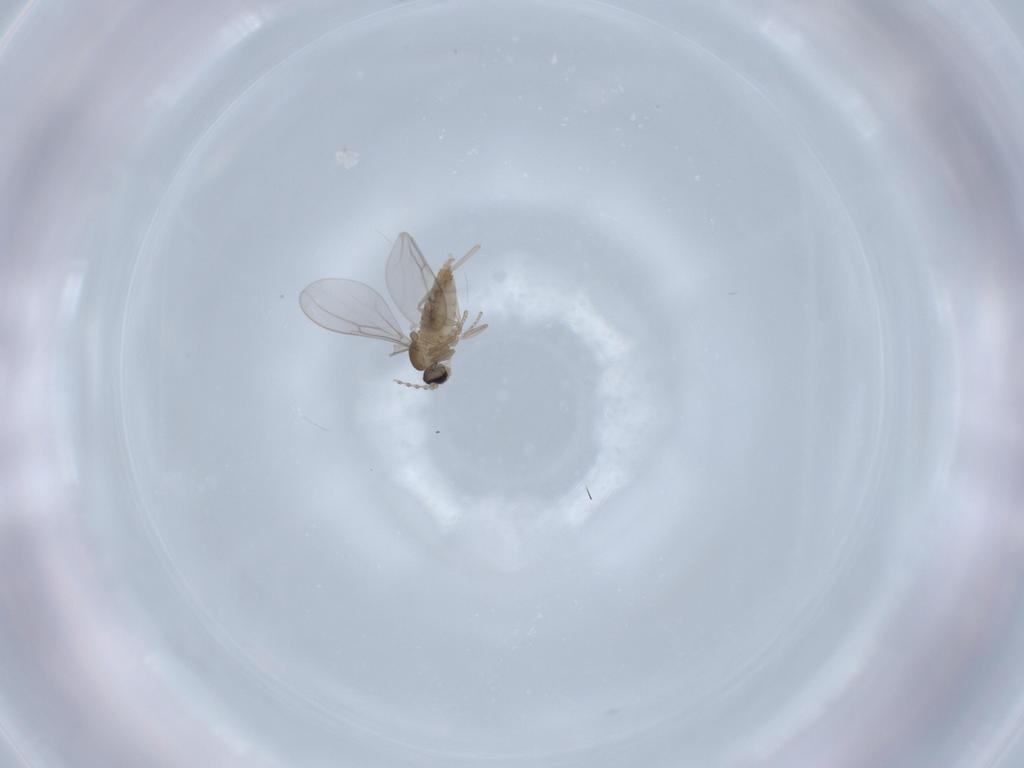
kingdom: Animalia
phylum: Arthropoda
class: Insecta
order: Diptera
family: Cecidomyiidae
